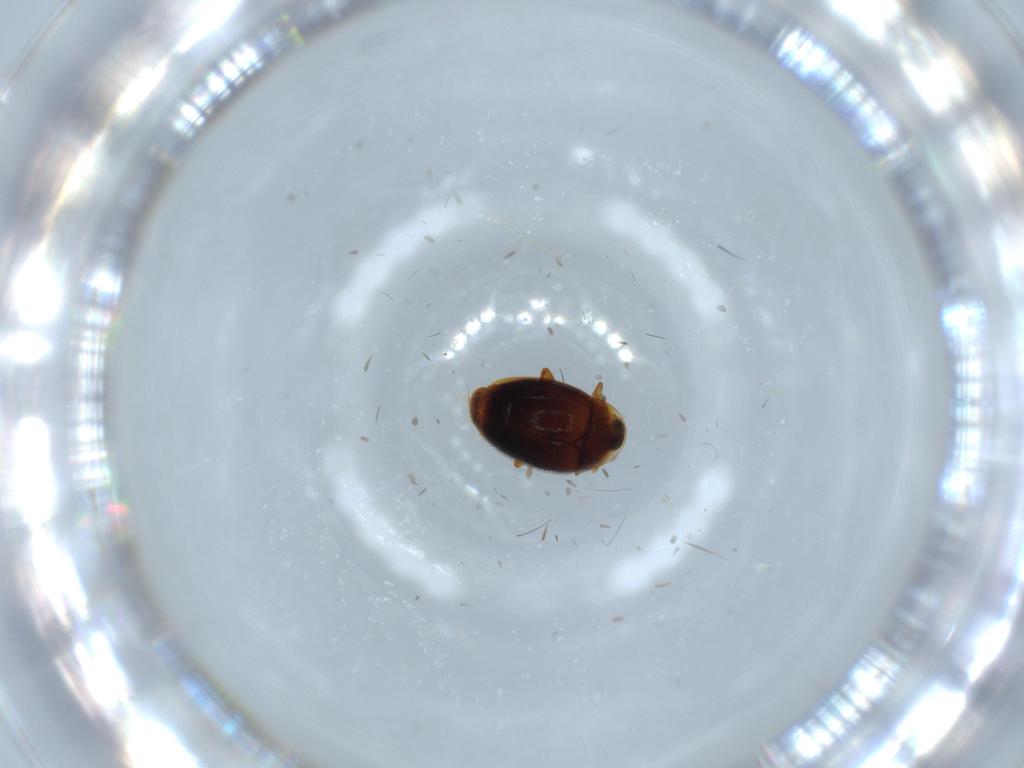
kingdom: Animalia
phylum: Arthropoda
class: Insecta
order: Coleoptera
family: Corylophidae
